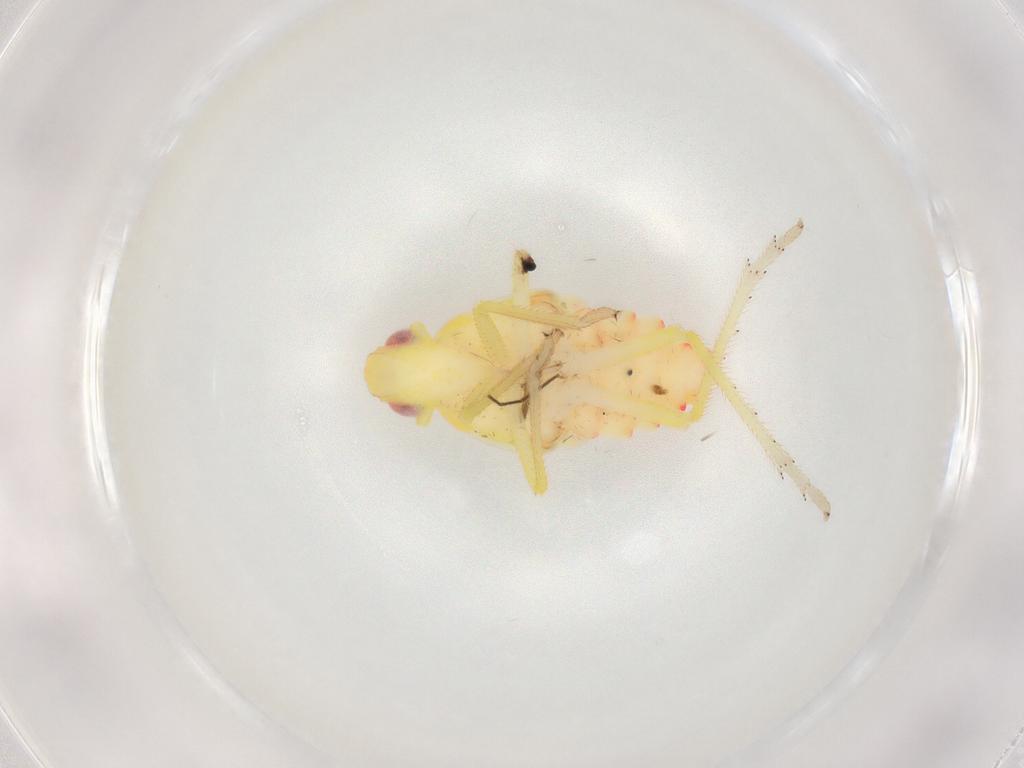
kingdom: Animalia
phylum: Arthropoda
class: Insecta
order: Hemiptera
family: Tropiduchidae
